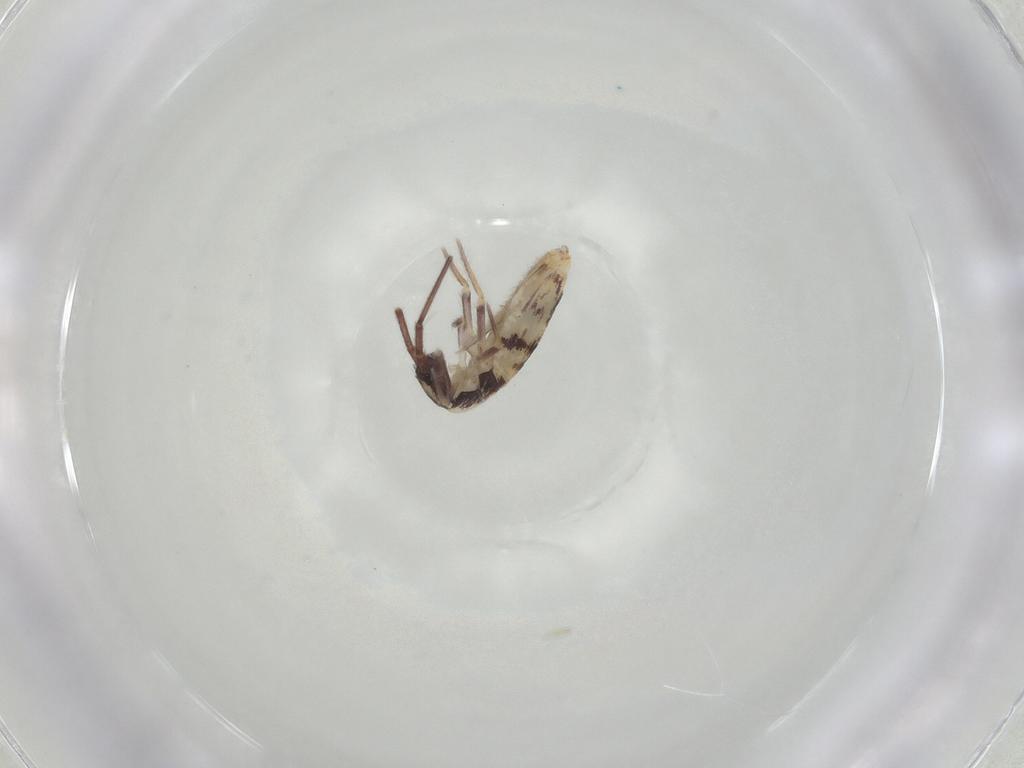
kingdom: Animalia
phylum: Arthropoda
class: Collembola
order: Entomobryomorpha
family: Entomobryidae
